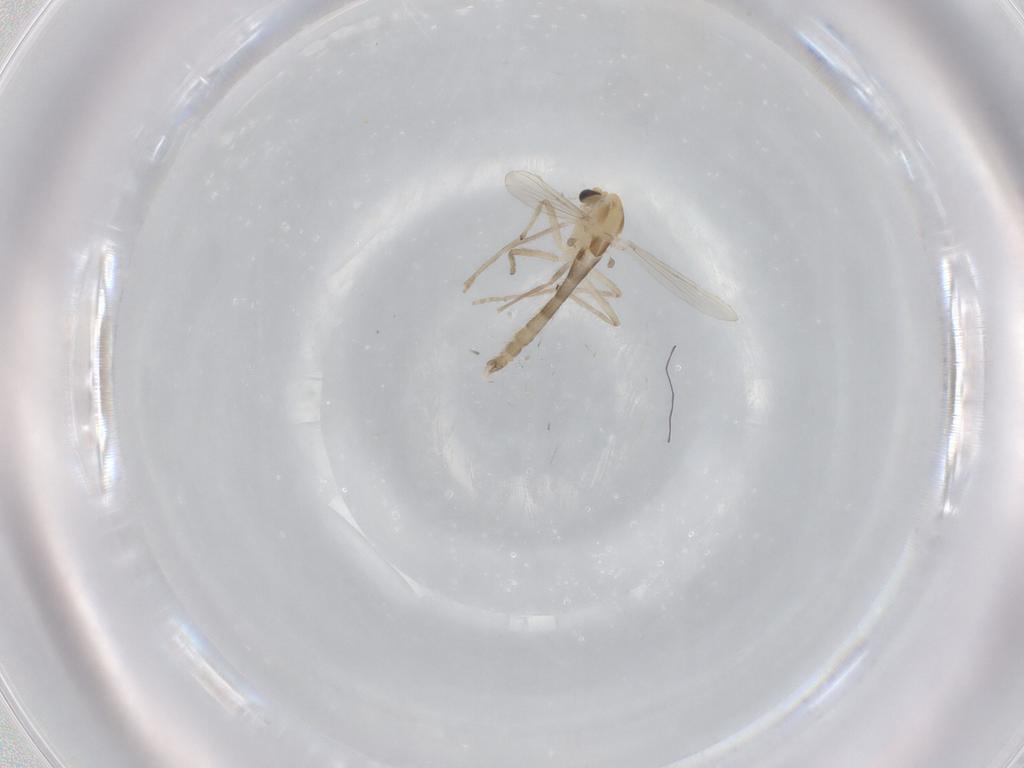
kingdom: Animalia
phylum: Arthropoda
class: Insecta
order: Diptera
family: Chironomidae
